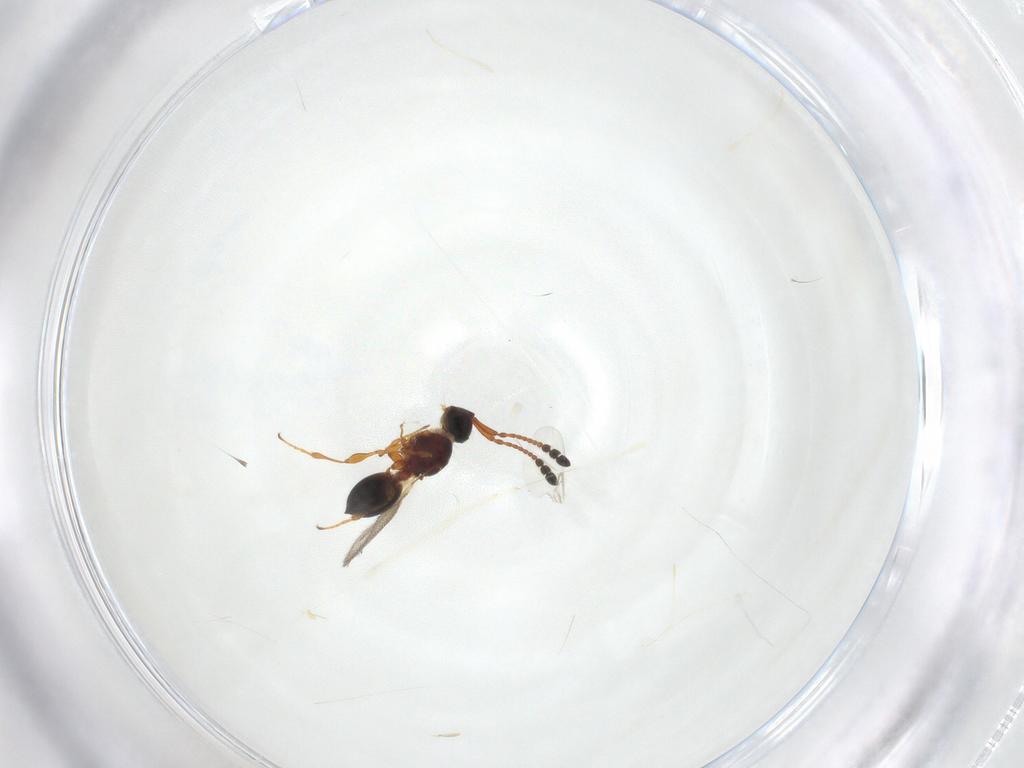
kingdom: Animalia
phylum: Arthropoda
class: Insecta
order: Hymenoptera
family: Diapriidae
